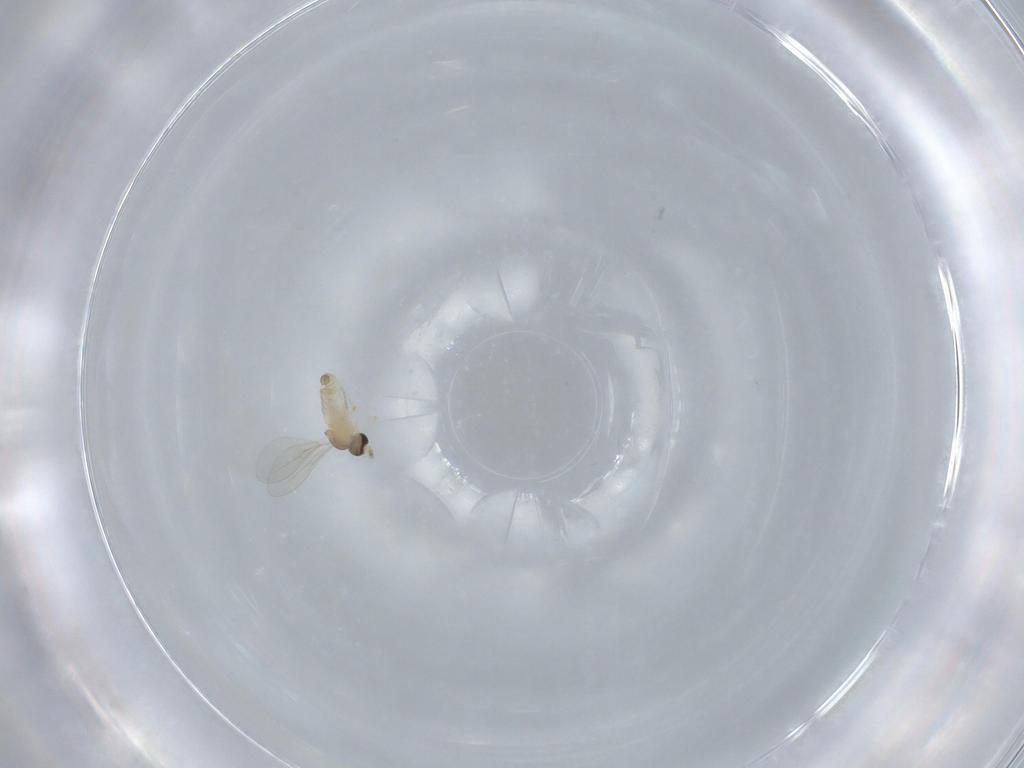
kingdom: Animalia
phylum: Arthropoda
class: Insecta
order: Diptera
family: Cecidomyiidae
